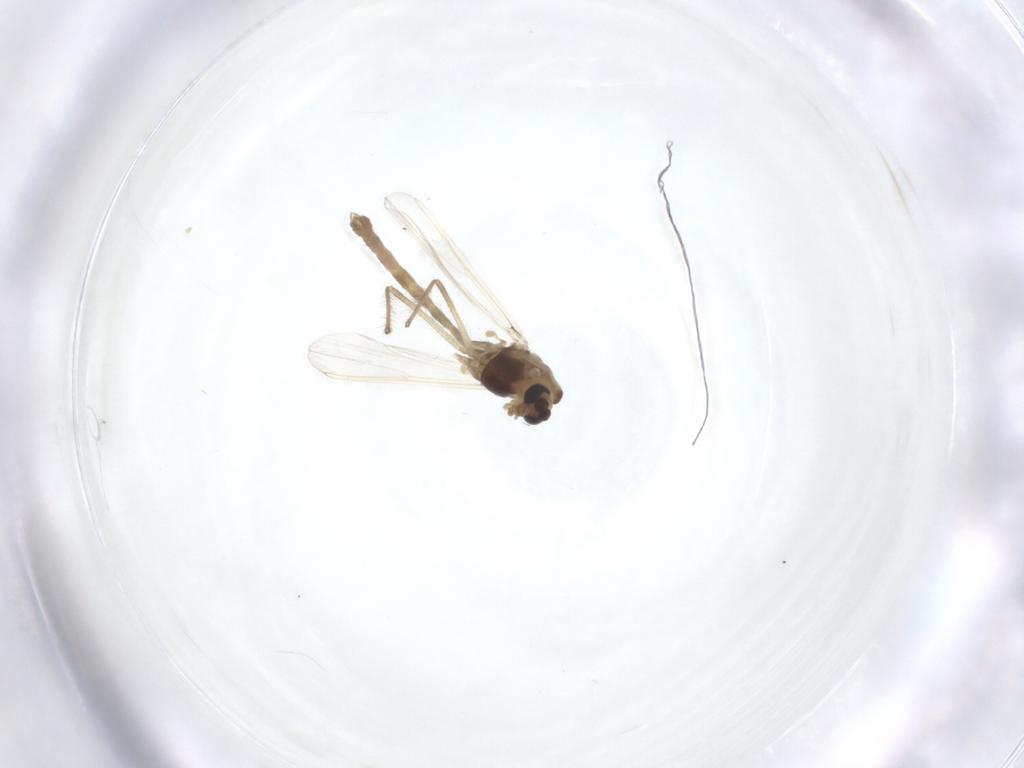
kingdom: Animalia
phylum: Arthropoda
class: Insecta
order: Diptera
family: Chironomidae
